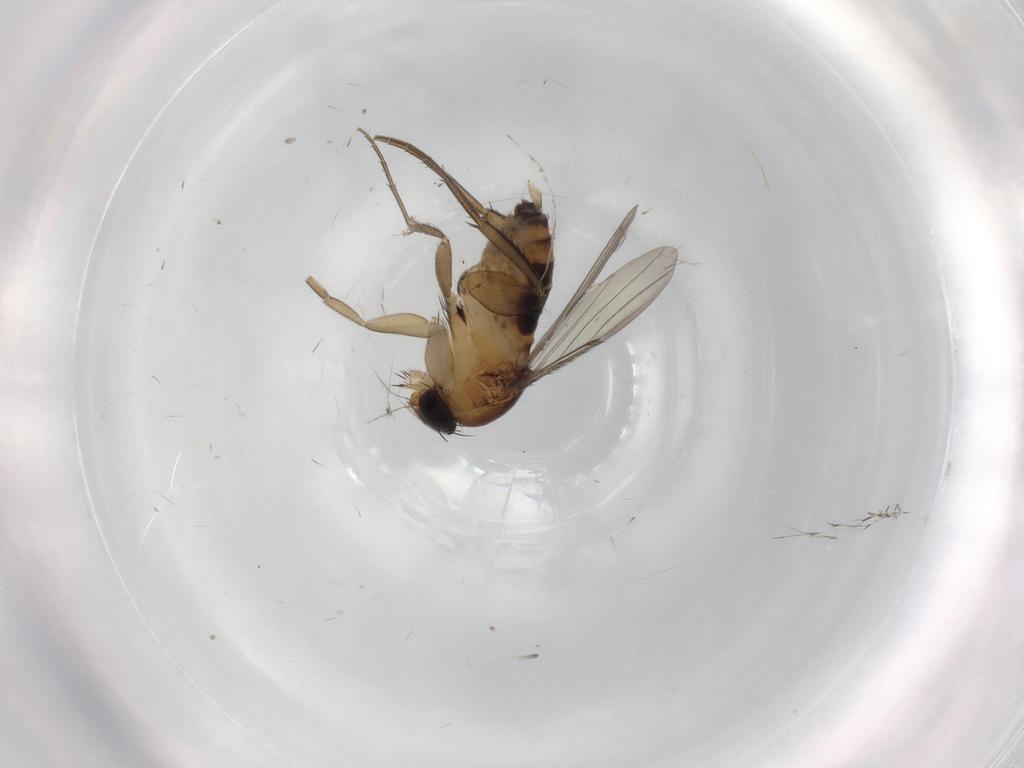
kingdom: Animalia
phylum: Arthropoda
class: Insecta
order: Diptera
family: Phoridae
